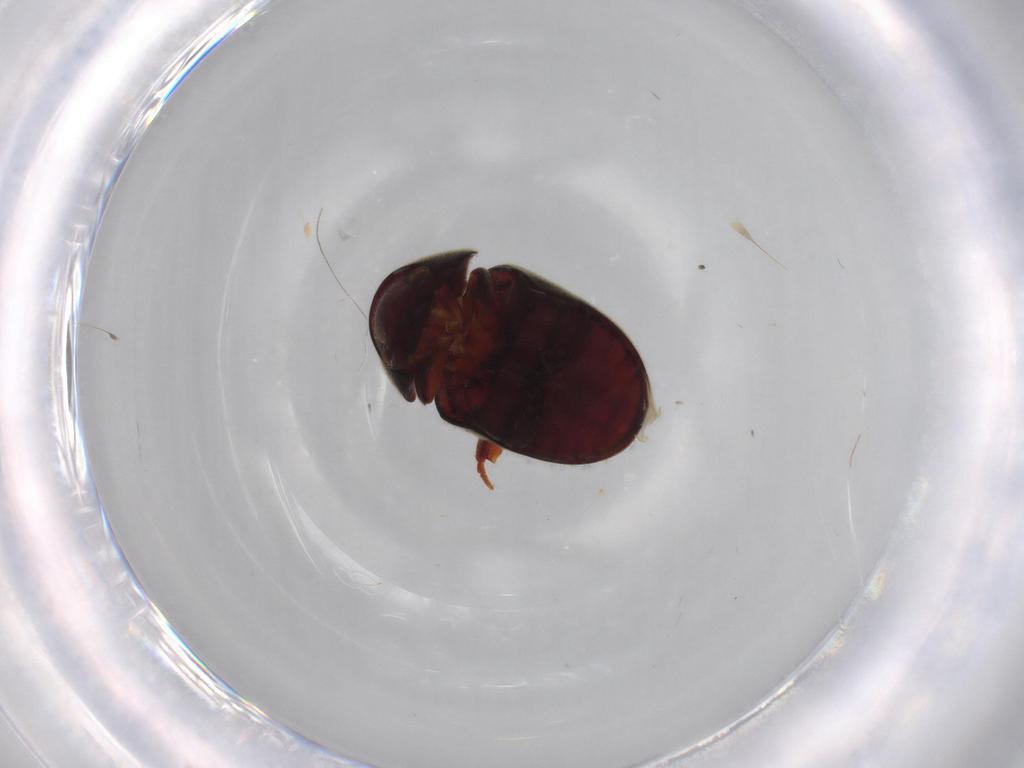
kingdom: Animalia
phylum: Arthropoda
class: Insecta
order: Coleoptera
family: Ptinidae
